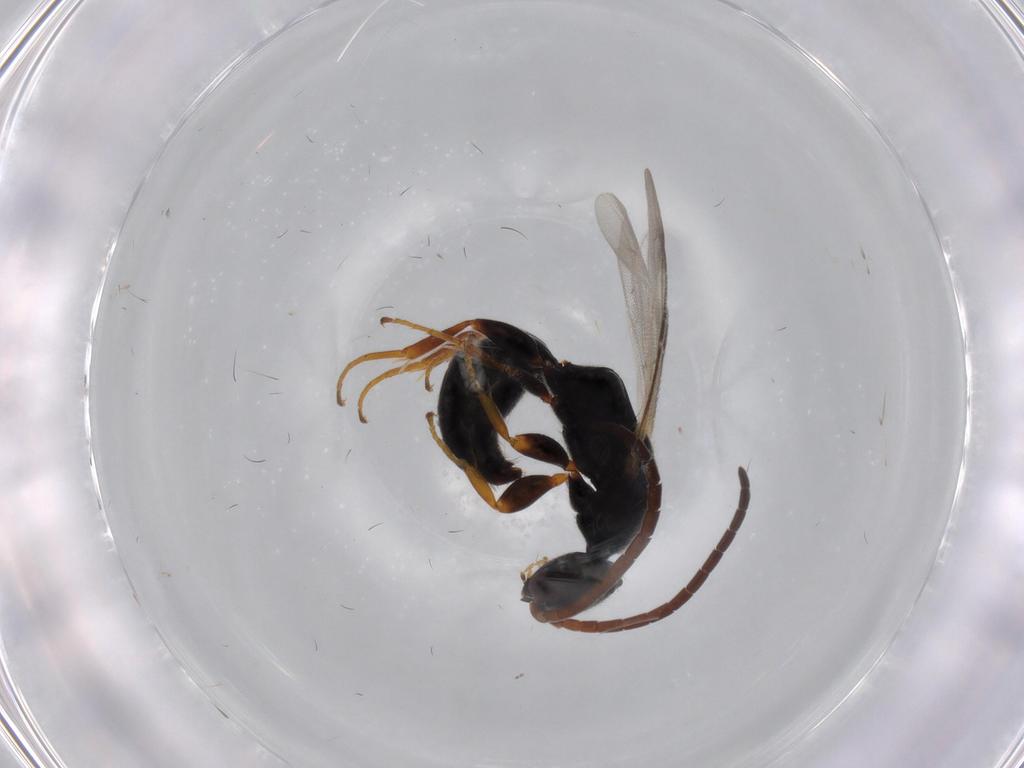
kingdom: Animalia
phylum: Arthropoda
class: Insecta
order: Hymenoptera
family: Bethylidae
